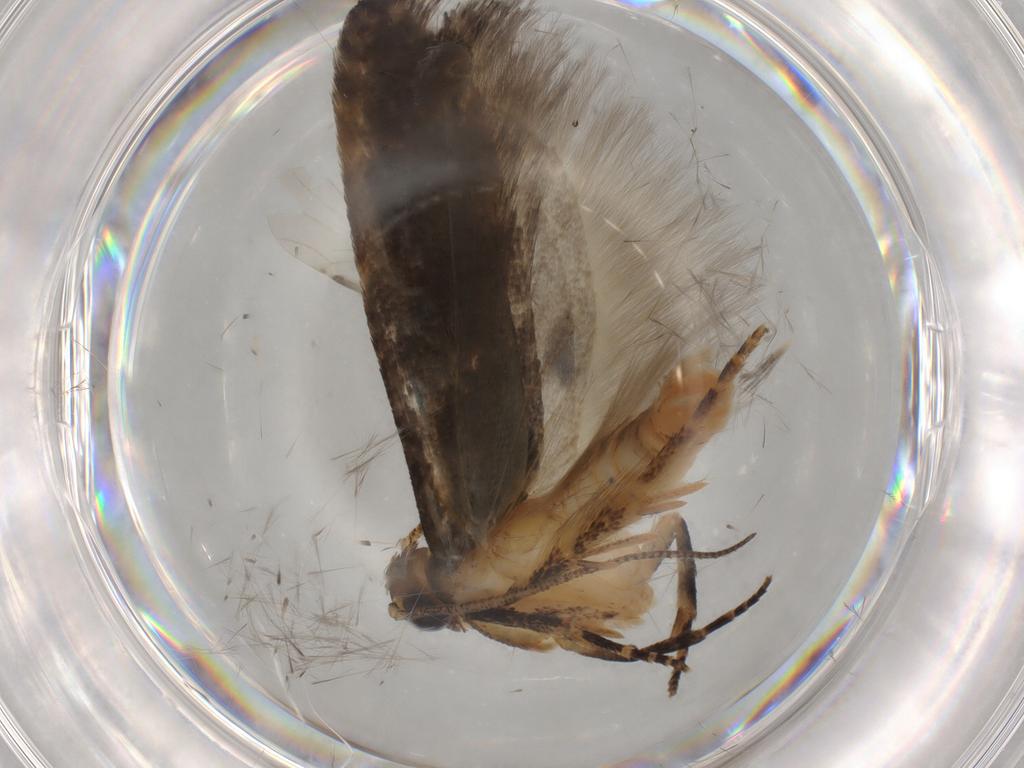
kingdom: Animalia
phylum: Arthropoda
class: Insecta
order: Lepidoptera
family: Gelechiidae
